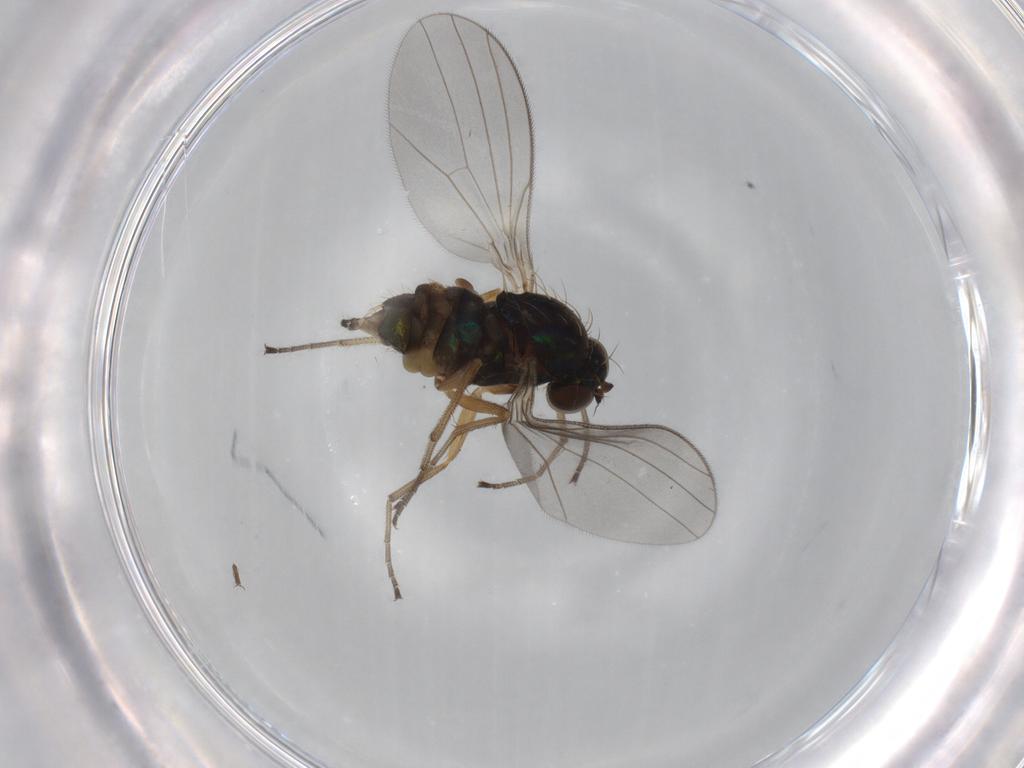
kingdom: Animalia
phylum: Arthropoda
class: Insecta
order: Diptera
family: Dolichopodidae
